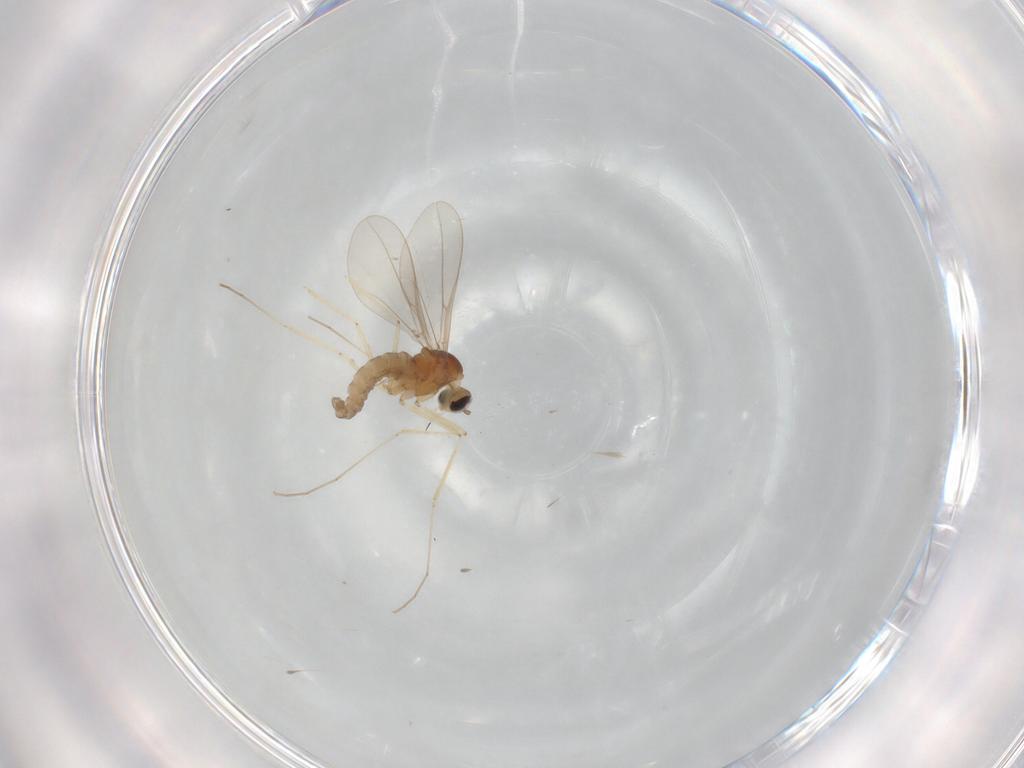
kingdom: Animalia
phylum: Arthropoda
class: Insecta
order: Diptera
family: Cecidomyiidae
